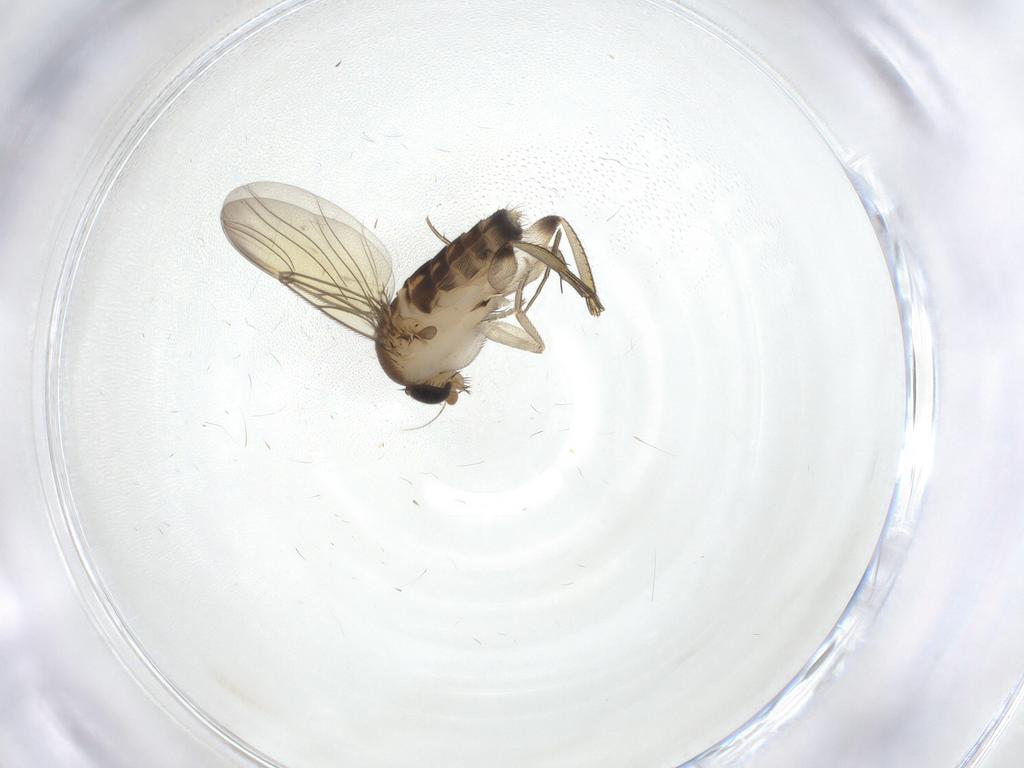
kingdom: Animalia
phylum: Arthropoda
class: Insecta
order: Diptera
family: Phoridae
